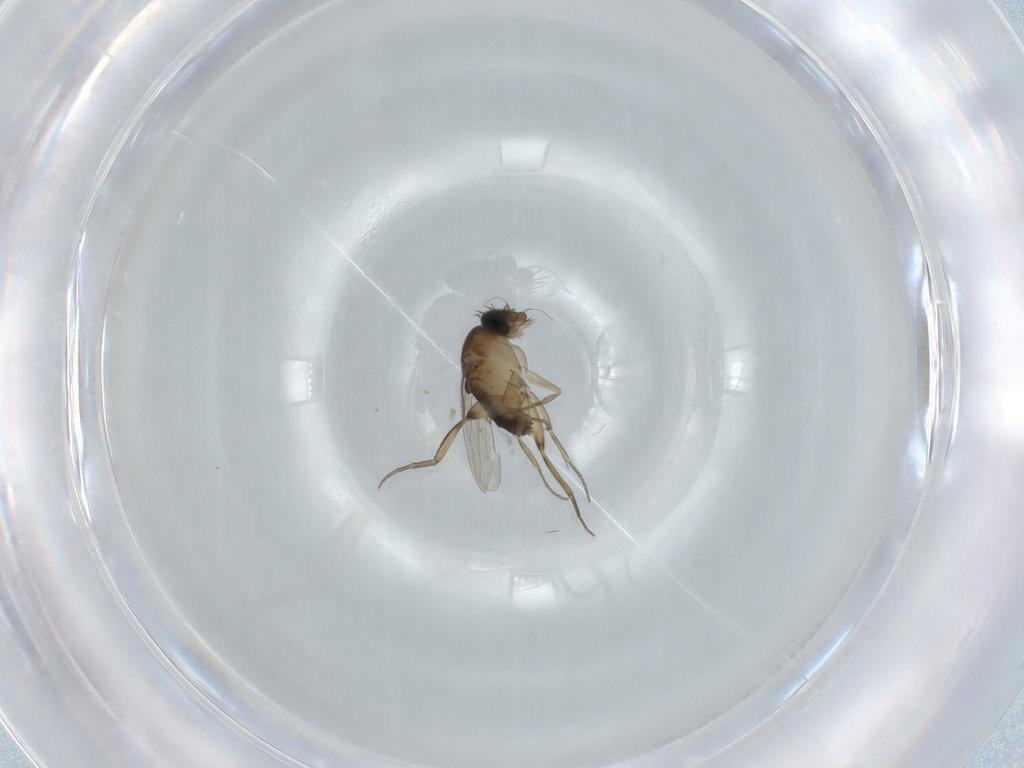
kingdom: Animalia
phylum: Arthropoda
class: Insecta
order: Diptera
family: Phoridae
